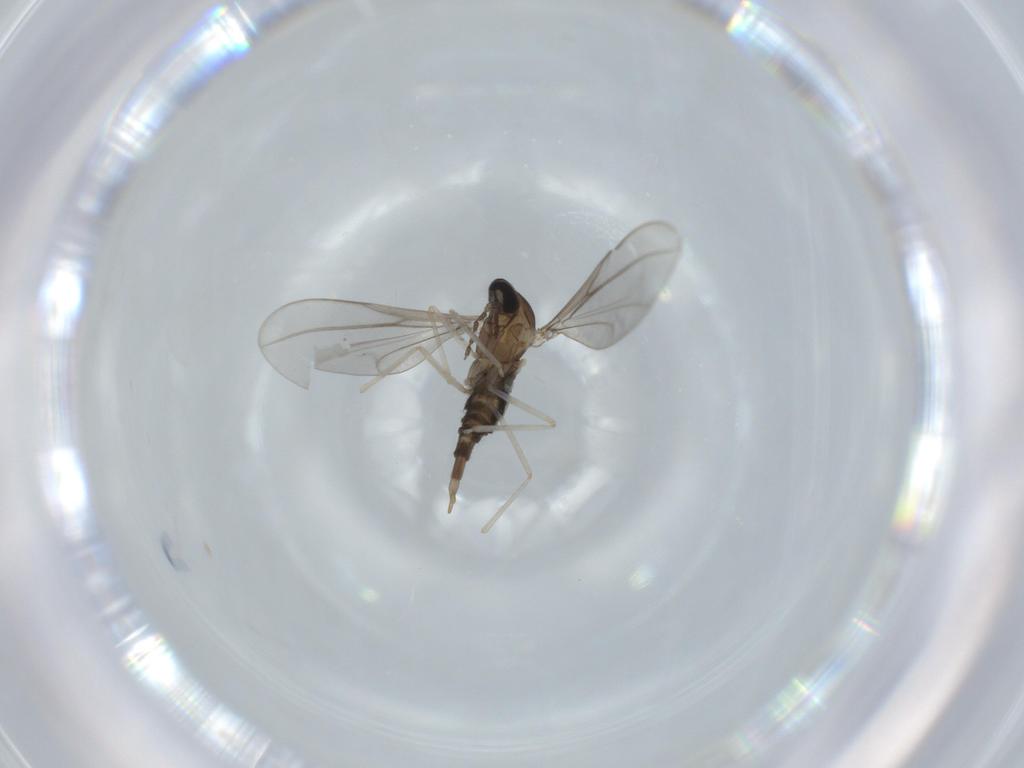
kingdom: Animalia
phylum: Arthropoda
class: Insecta
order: Diptera
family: Cecidomyiidae
